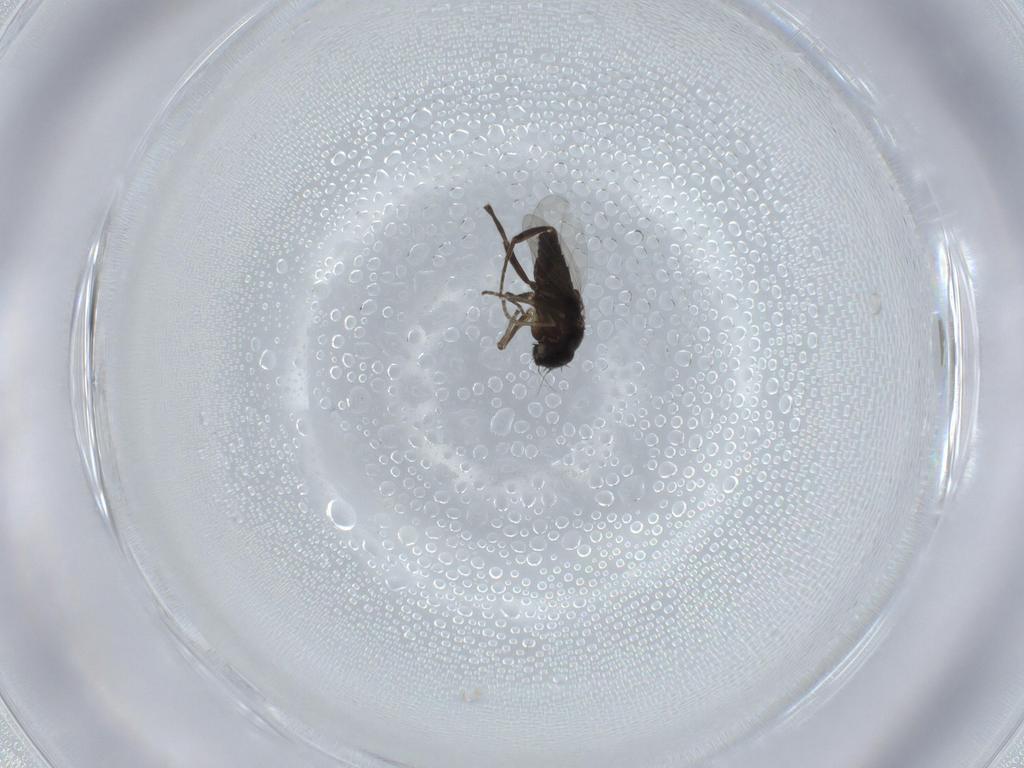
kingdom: Animalia
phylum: Arthropoda
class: Insecta
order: Diptera
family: Phoridae
